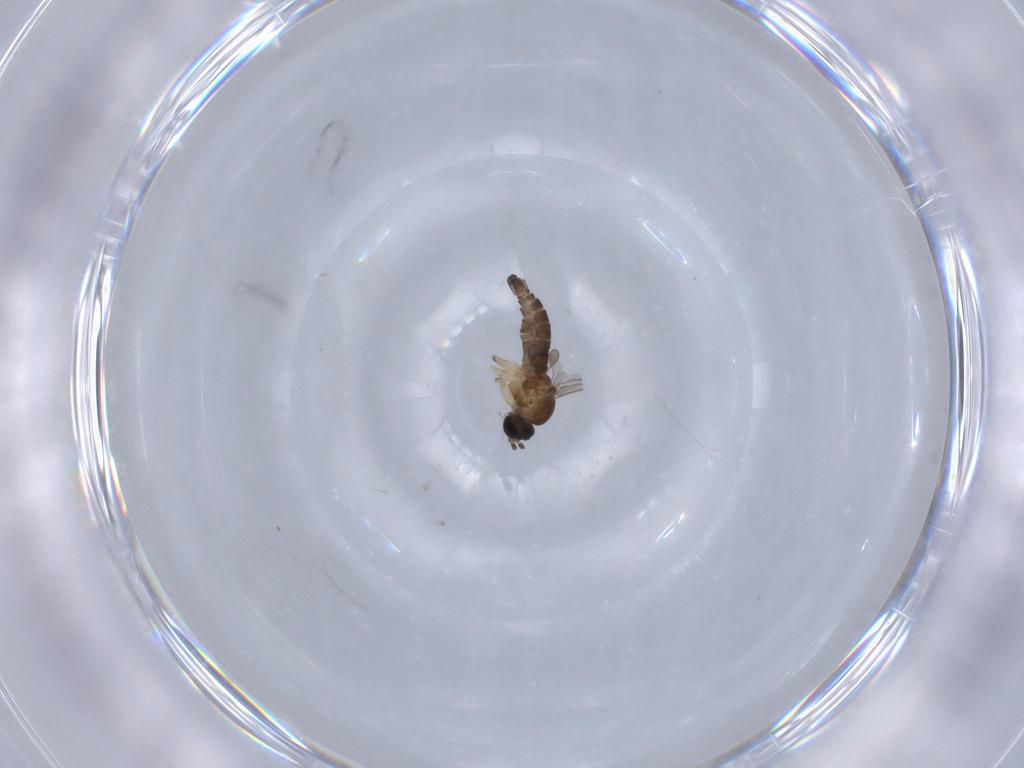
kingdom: Animalia
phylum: Arthropoda
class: Insecta
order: Diptera
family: Sciaridae
